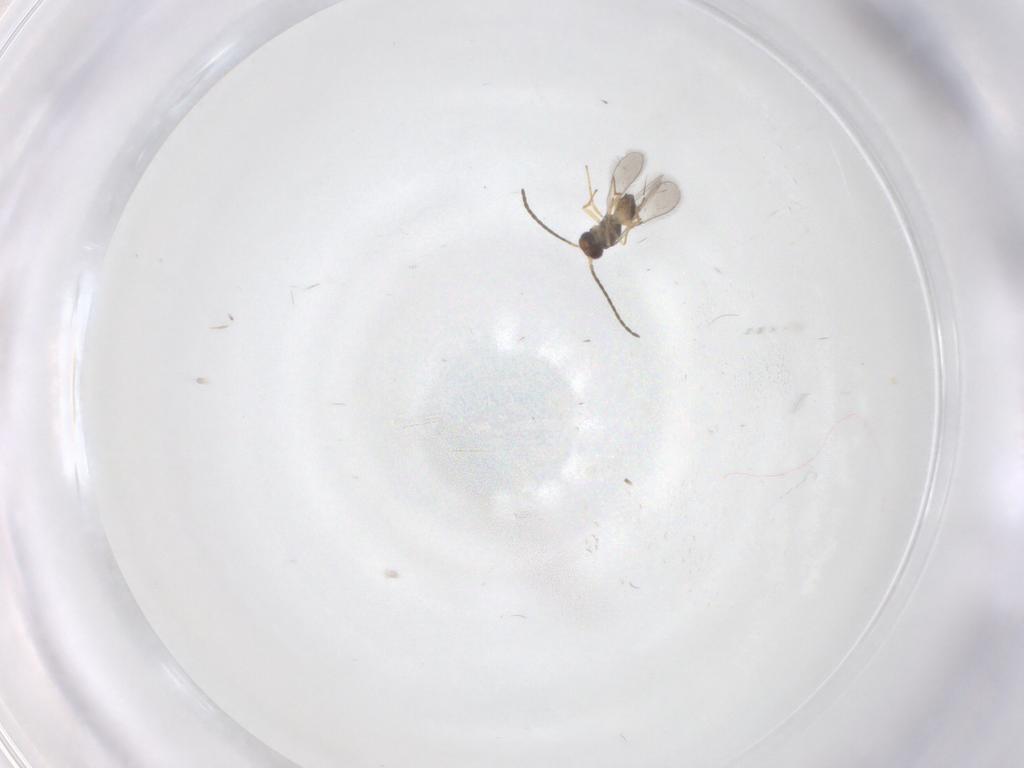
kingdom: Animalia
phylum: Arthropoda
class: Insecta
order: Hymenoptera
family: Mymaridae
